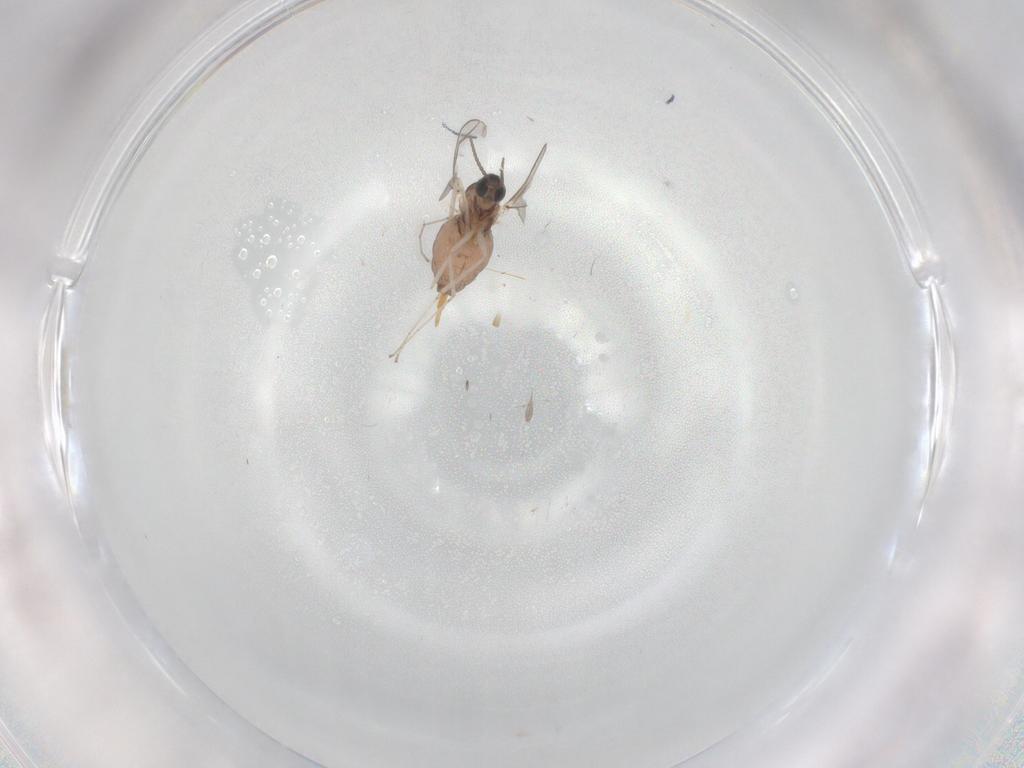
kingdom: Animalia
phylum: Arthropoda
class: Insecta
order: Diptera
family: Cecidomyiidae
